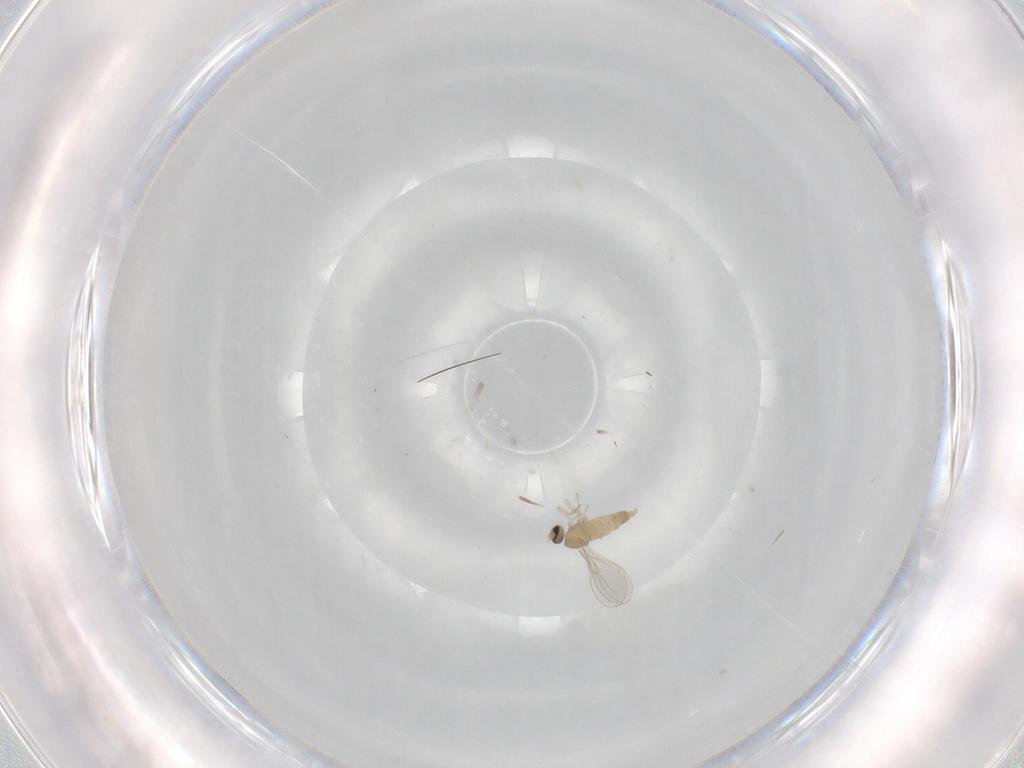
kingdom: Animalia
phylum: Arthropoda
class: Insecta
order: Diptera
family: Cecidomyiidae
